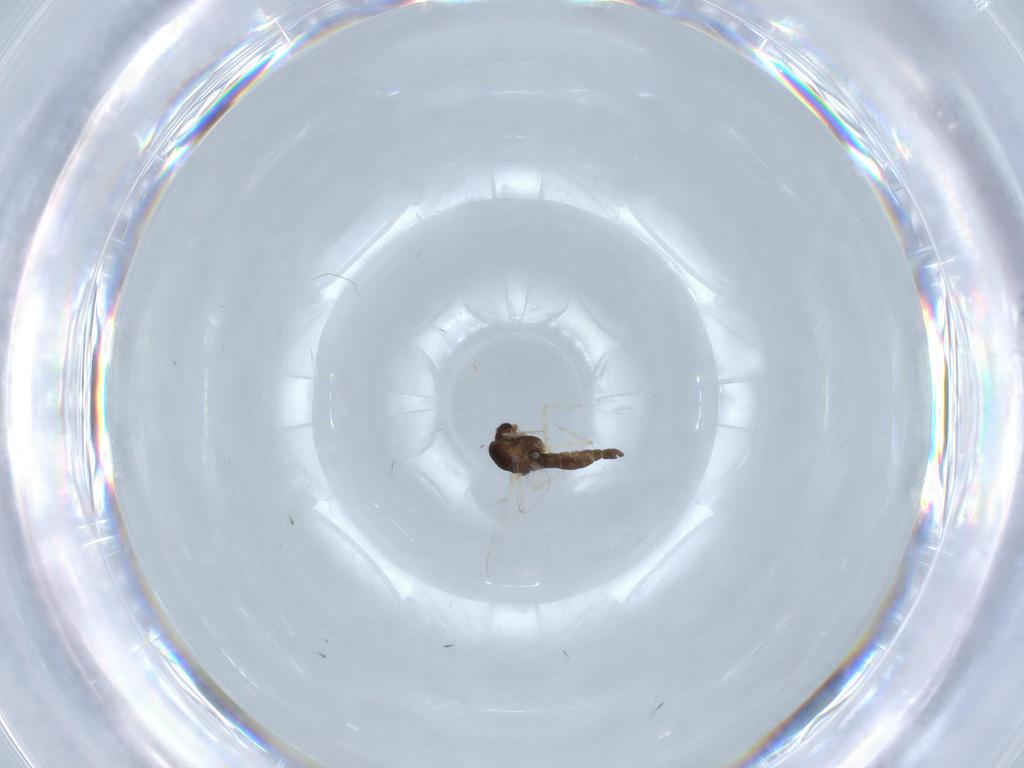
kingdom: Animalia
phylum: Arthropoda
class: Insecta
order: Diptera
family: Chironomidae
